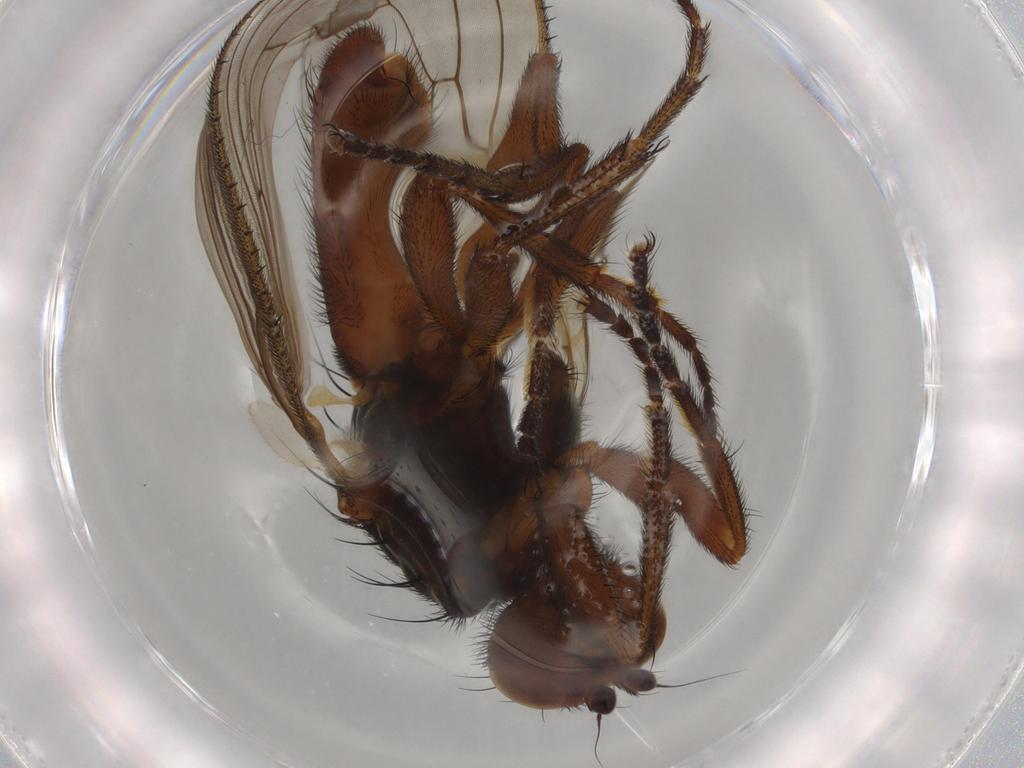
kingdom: Animalia
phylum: Arthropoda
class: Insecta
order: Diptera
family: Heleomyzidae
